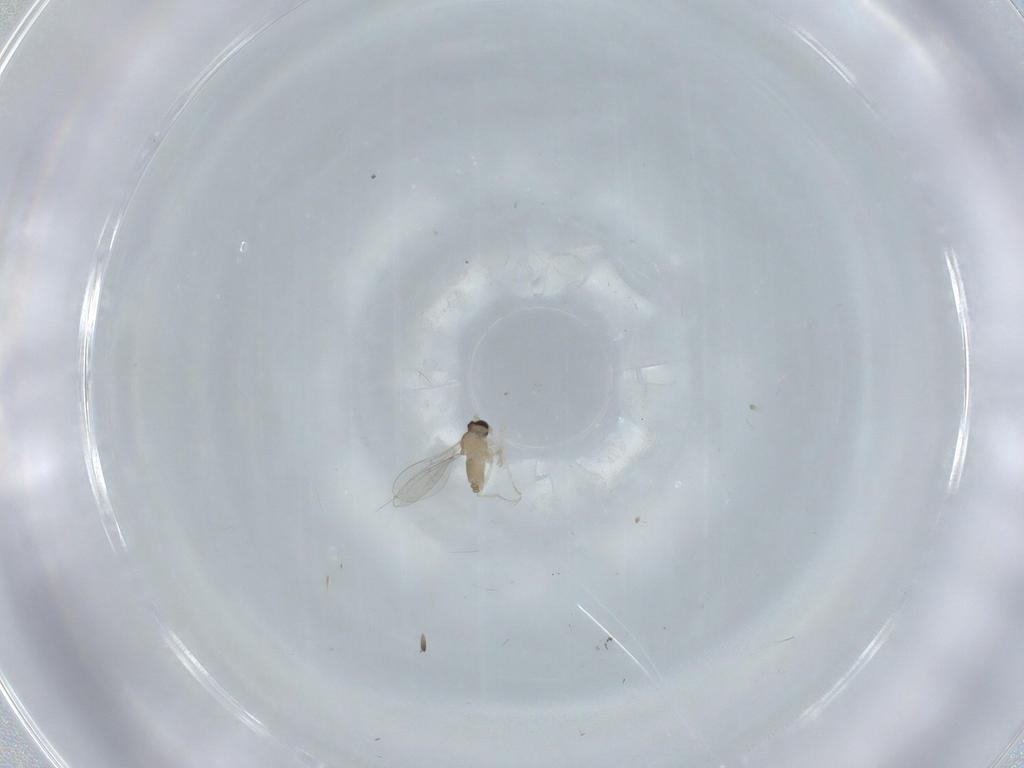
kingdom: Animalia
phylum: Arthropoda
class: Insecta
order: Diptera
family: Cecidomyiidae
